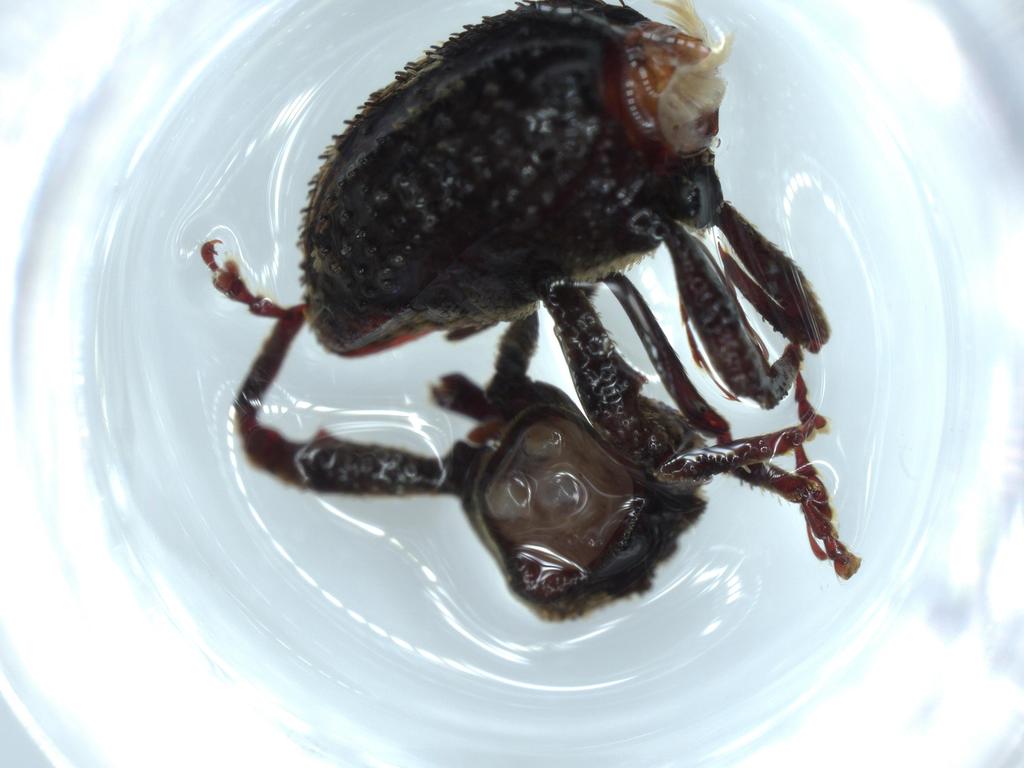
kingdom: Animalia
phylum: Arthropoda
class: Insecta
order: Coleoptera
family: Curculionidae
